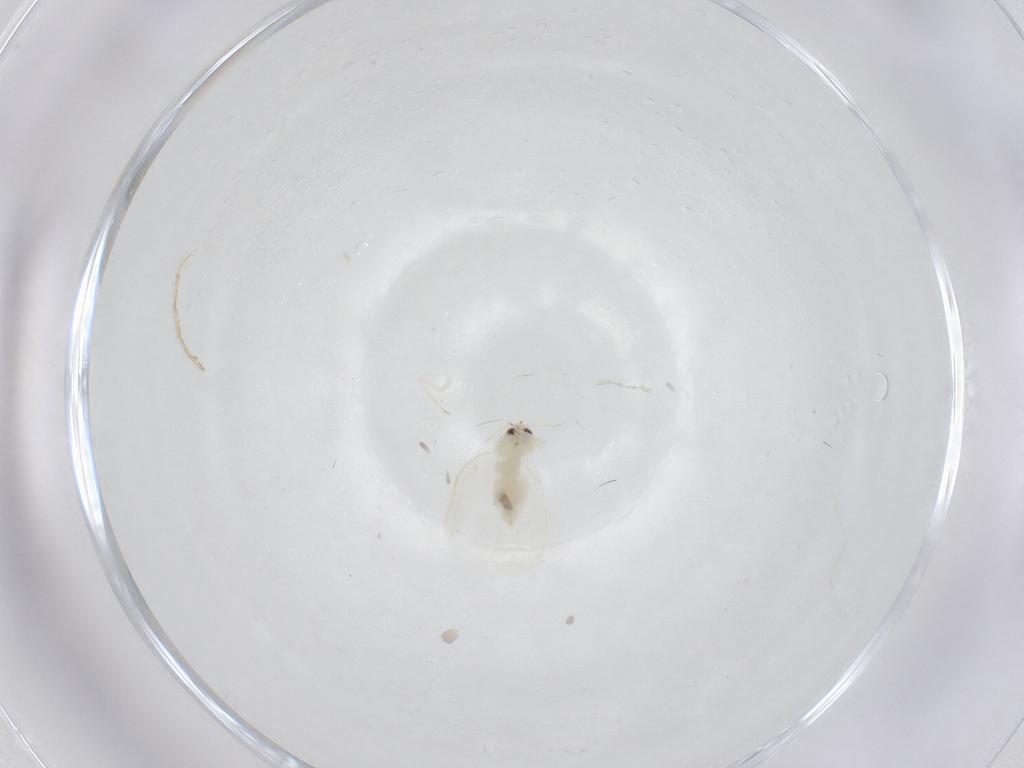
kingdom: Animalia
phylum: Arthropoda
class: Insecta
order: Hemiptera
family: Aleyrodidae
